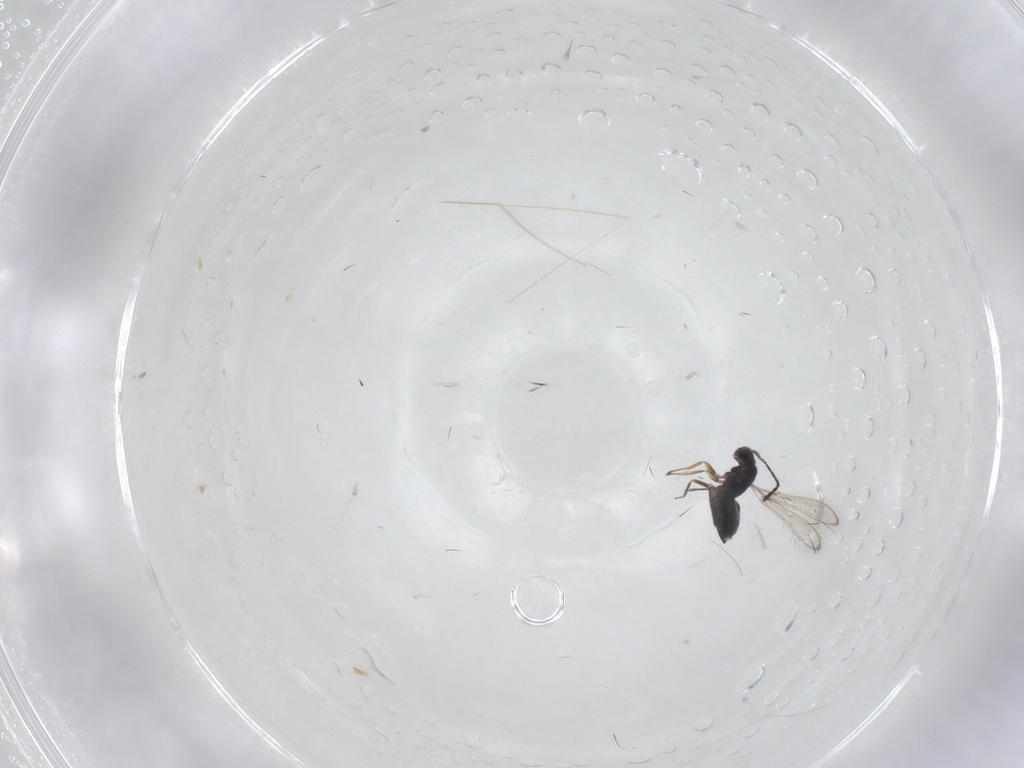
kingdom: Animalia
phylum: Arthropoda
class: Insecta
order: Hymenoptera
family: Mymaridae
